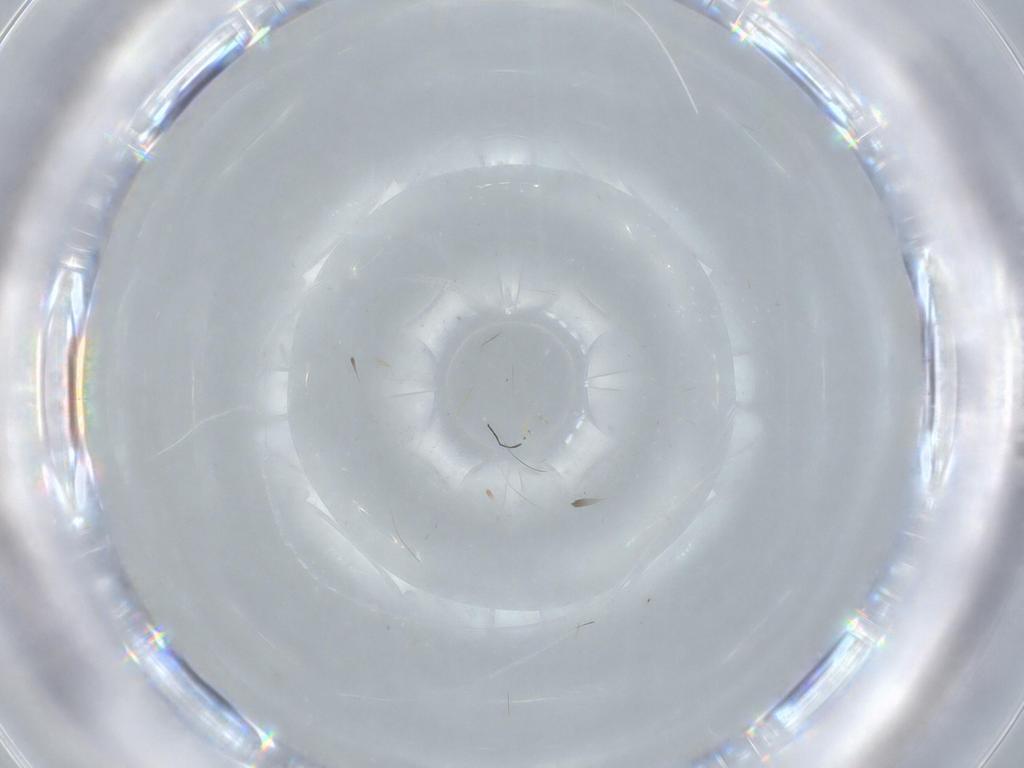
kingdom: Animalia
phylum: Arthropoda
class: Insecta
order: Diptera
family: Cecidomyiidae
